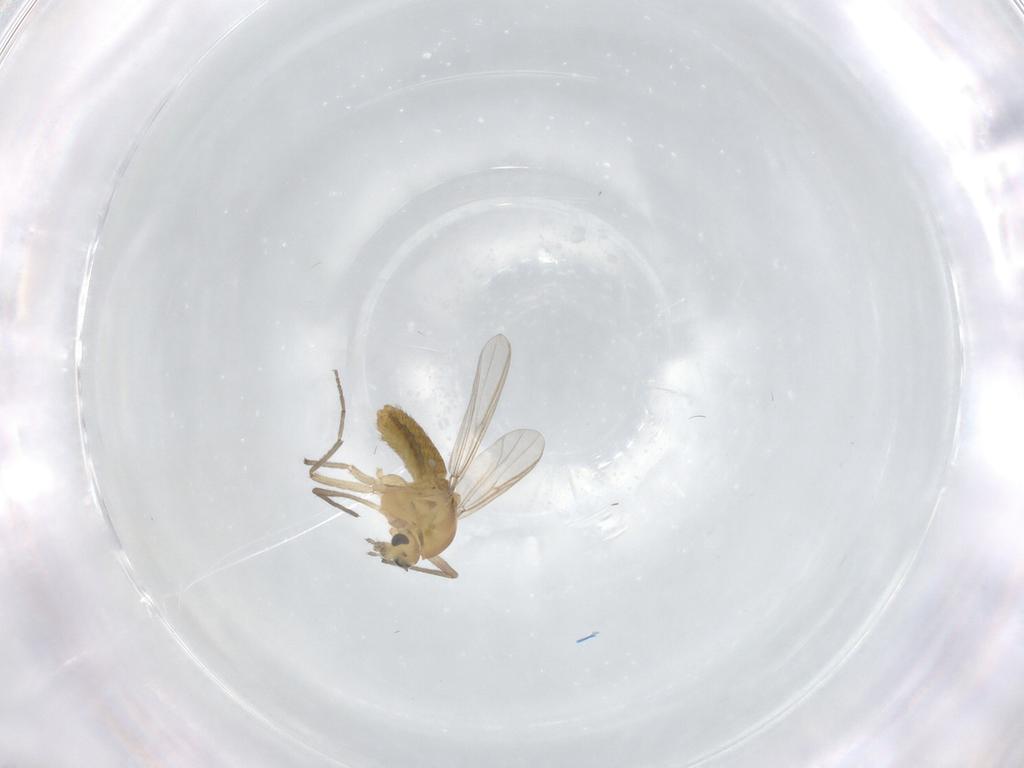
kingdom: Animalia
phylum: Arthropoda
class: Insecta
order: Diptera
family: Chironomidae
